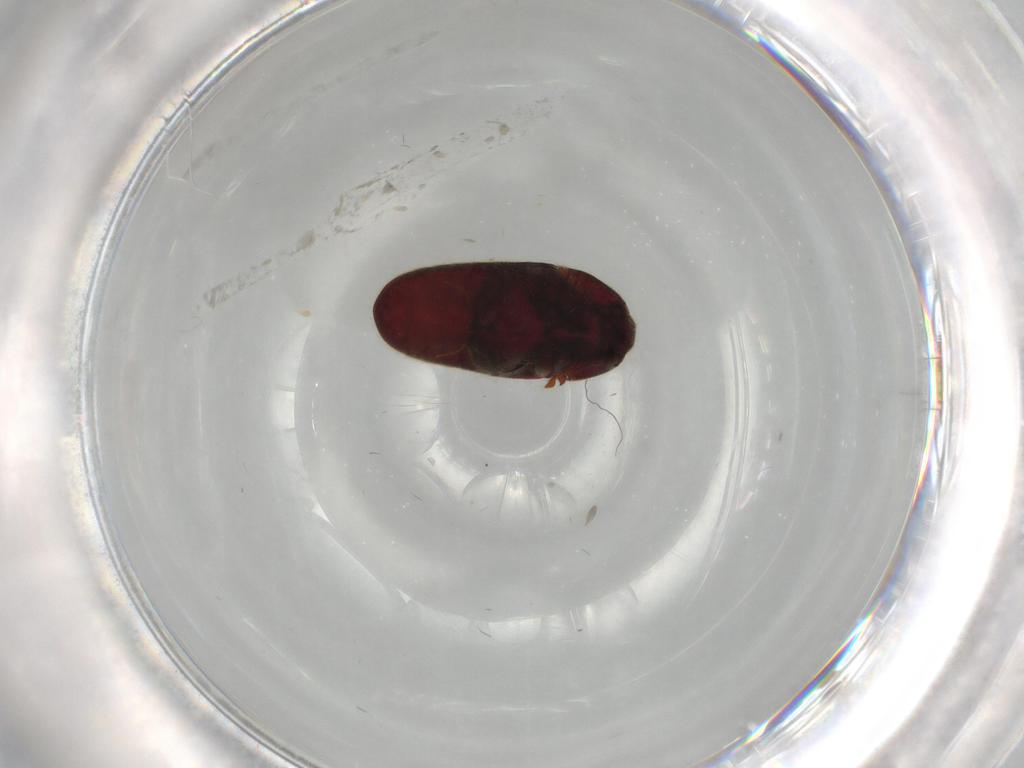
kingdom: Animalia
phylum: Arthropoda
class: Insecta
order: Coleoptera
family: Throscidae
